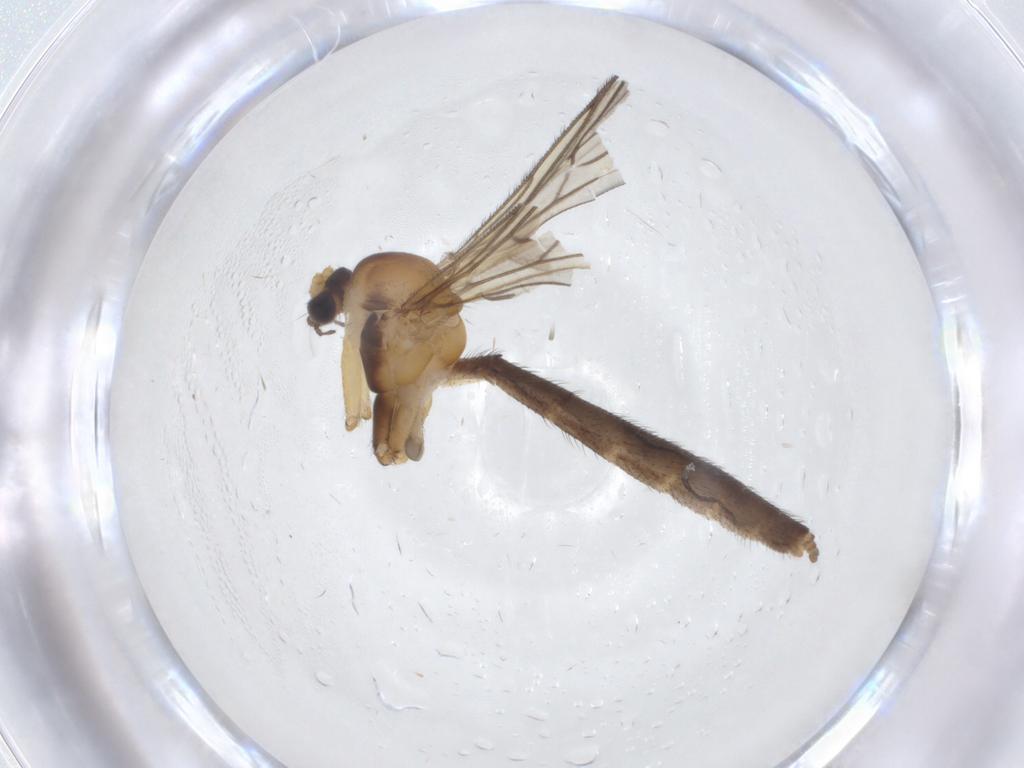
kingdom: Animalia
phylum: Arthropoda
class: Insecta
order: Diptera
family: Keroplatidae
